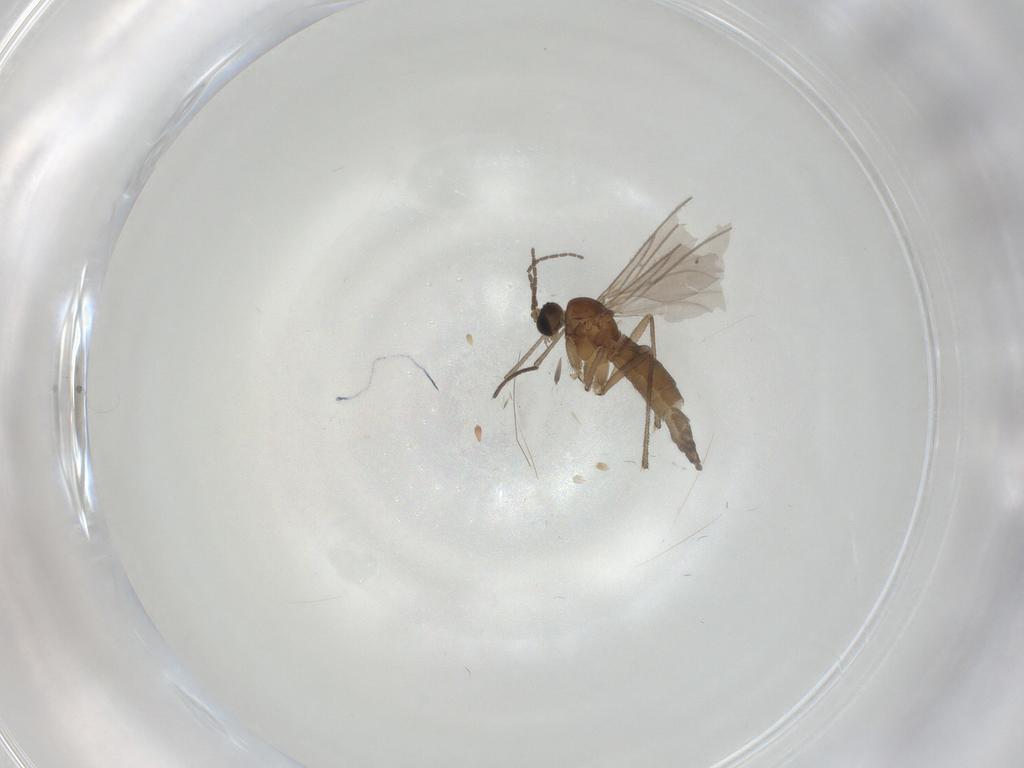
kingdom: Animalia
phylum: Arthropoda
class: Insecta
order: Diptera
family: Sciaridae
